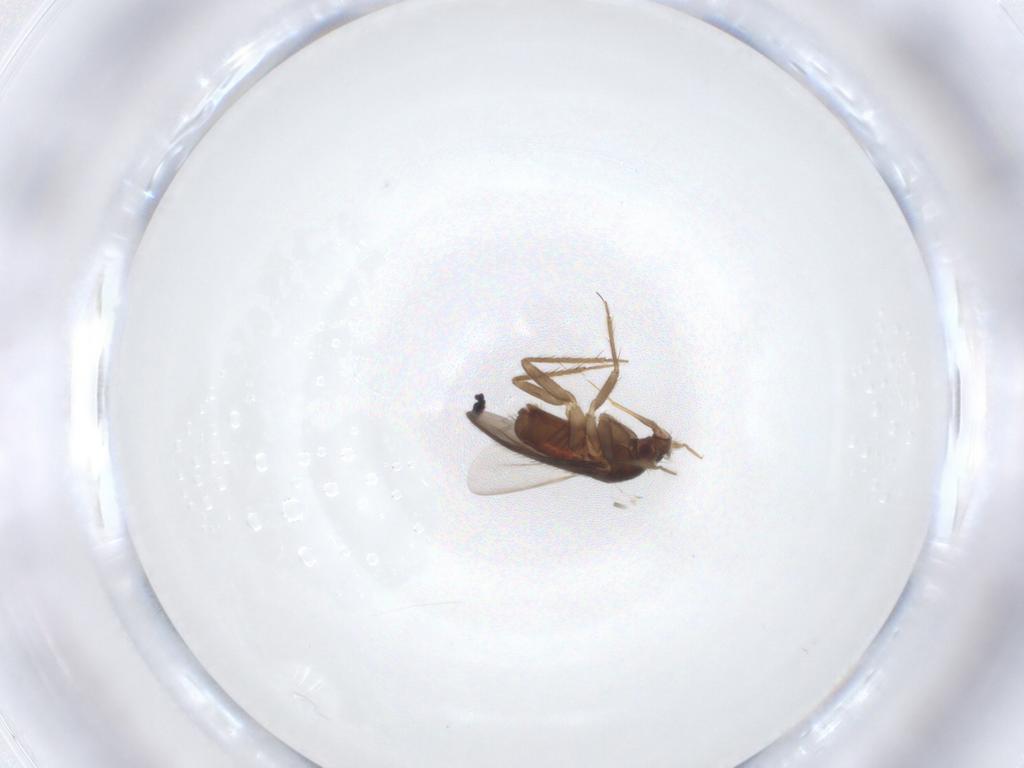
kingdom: Animalia
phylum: Arthropoda
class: Insecta
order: Hemiptera
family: Ceratocombidae
